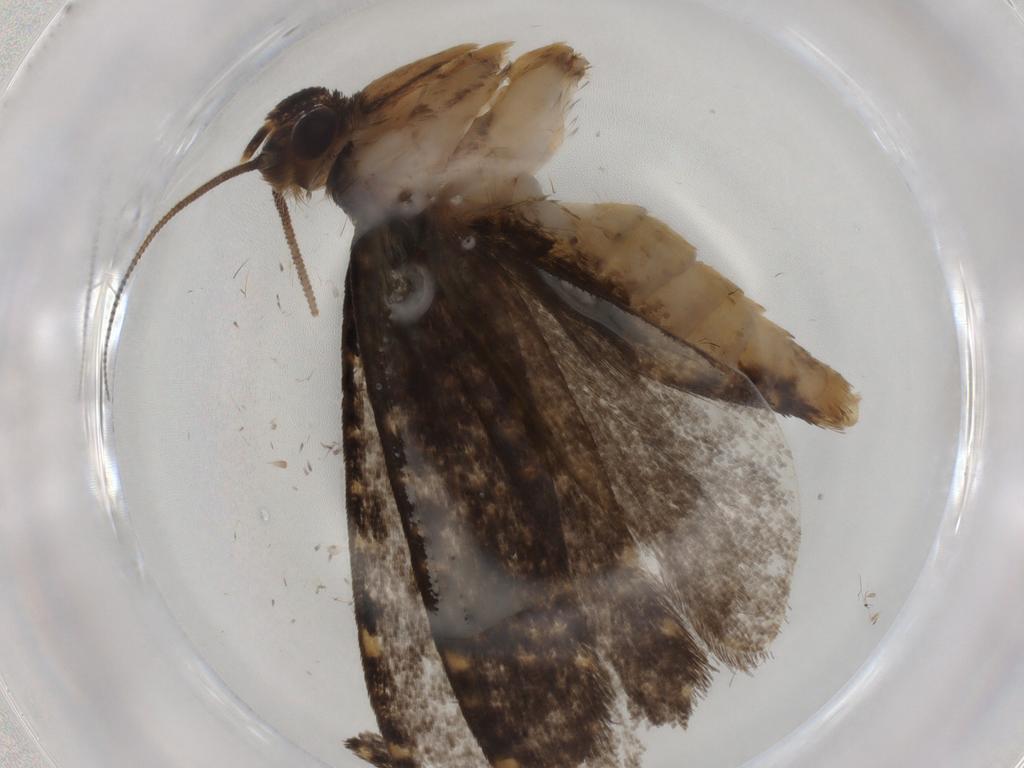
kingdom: Animalia
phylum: Arthropoda
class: Insecta
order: Lepidoptera
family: Tineidae
